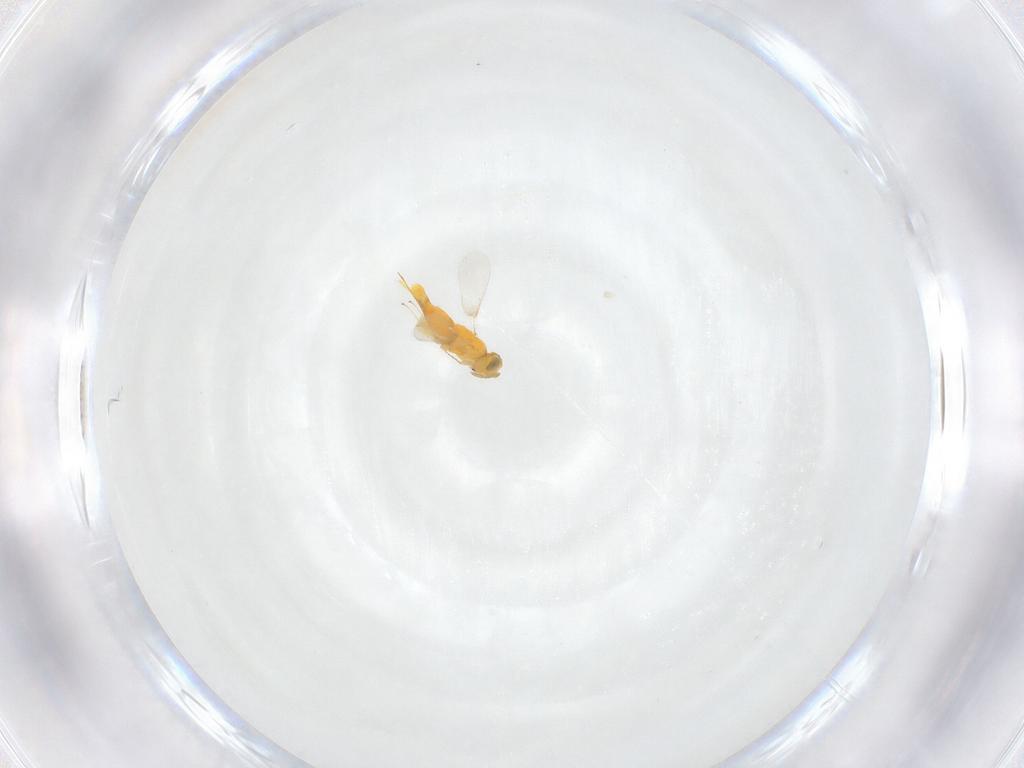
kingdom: Animalia
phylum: Arthropoda
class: Insecta
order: Hymenoptera
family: Aphelinidae
